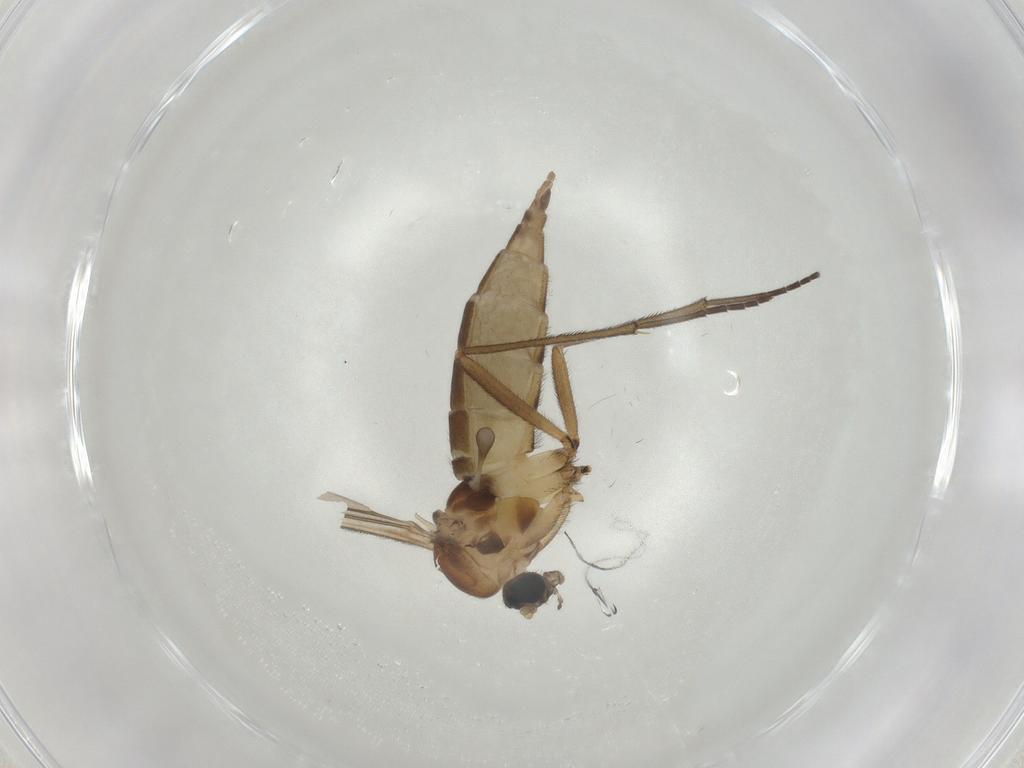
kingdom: Animalia
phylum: Arthropoda
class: Insecta
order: Diptera
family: Sciaridae
